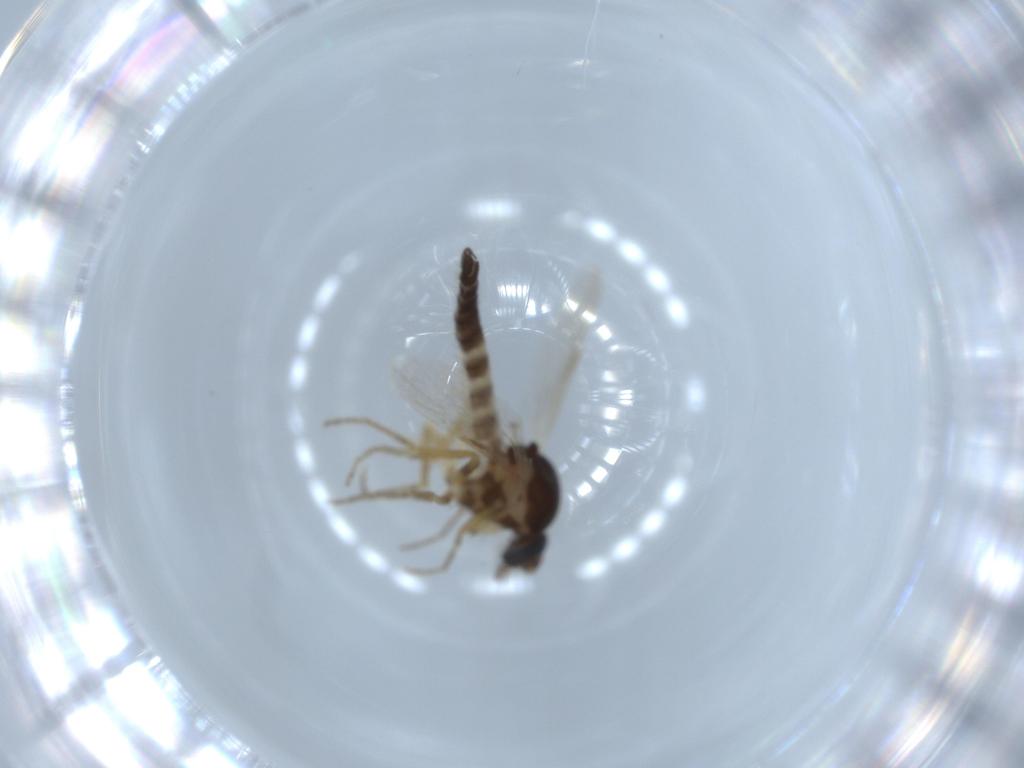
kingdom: Animalia
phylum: Arthropoda
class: Insecta
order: Diptera
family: Ceratopogonidae
